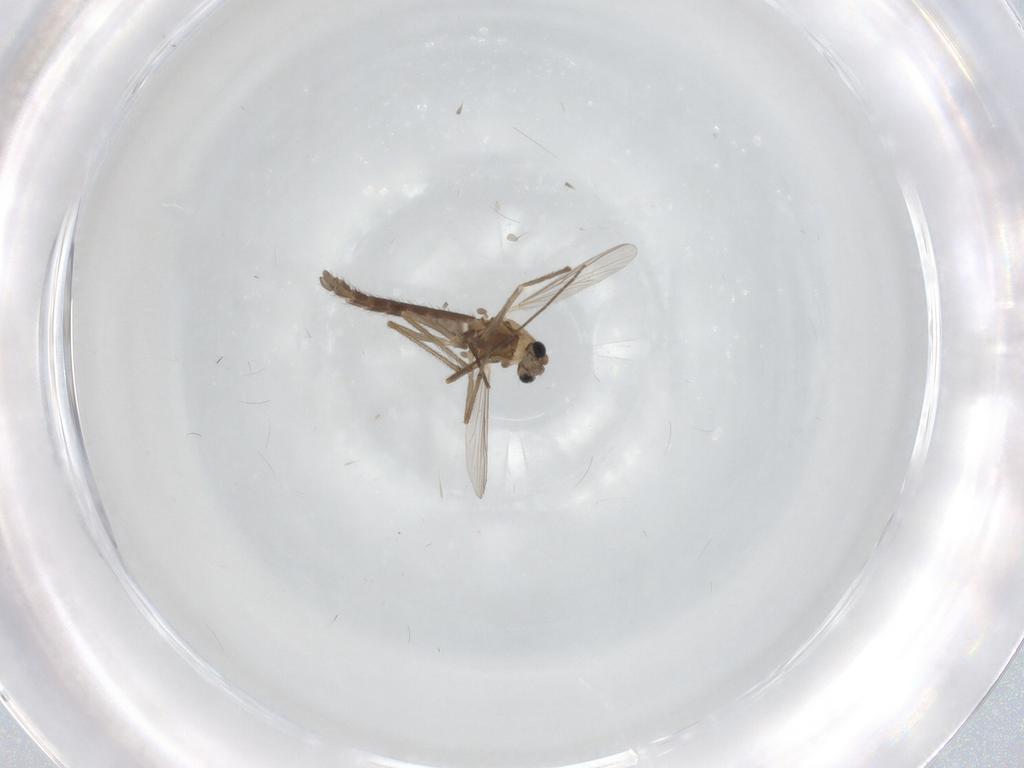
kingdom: Animalia
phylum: Arthropoda
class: Insecta
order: Diptera
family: Chironomidae
